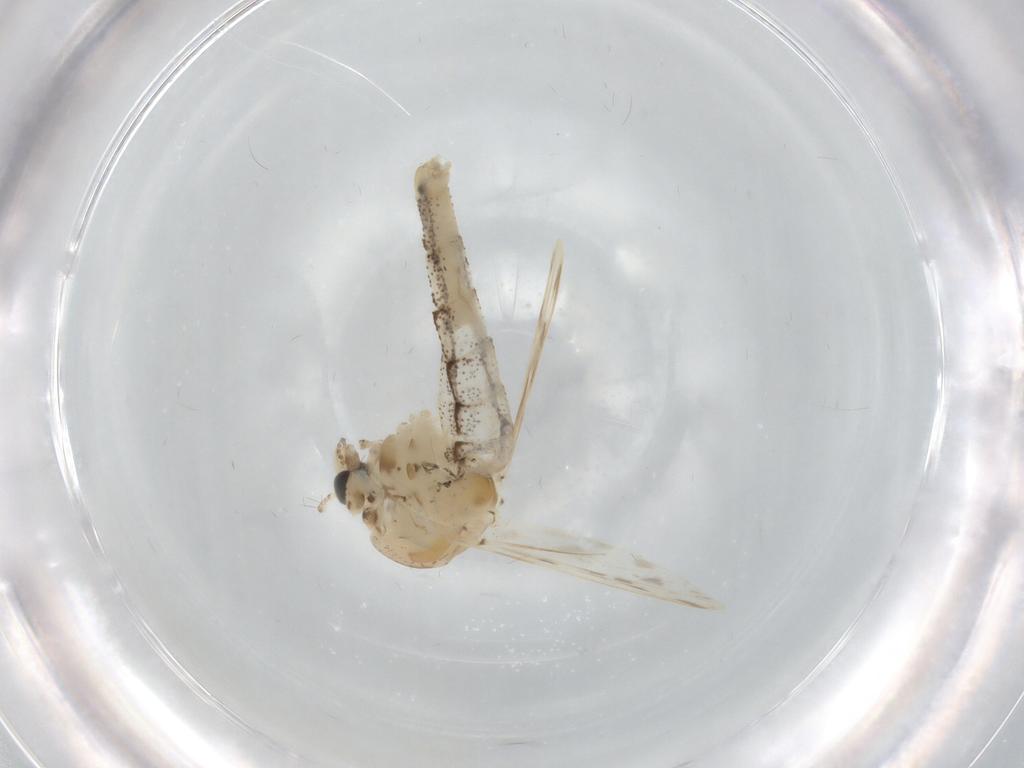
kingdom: Animalia
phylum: Arthropoda
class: Insecta
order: Diptera
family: Chaoboridae
